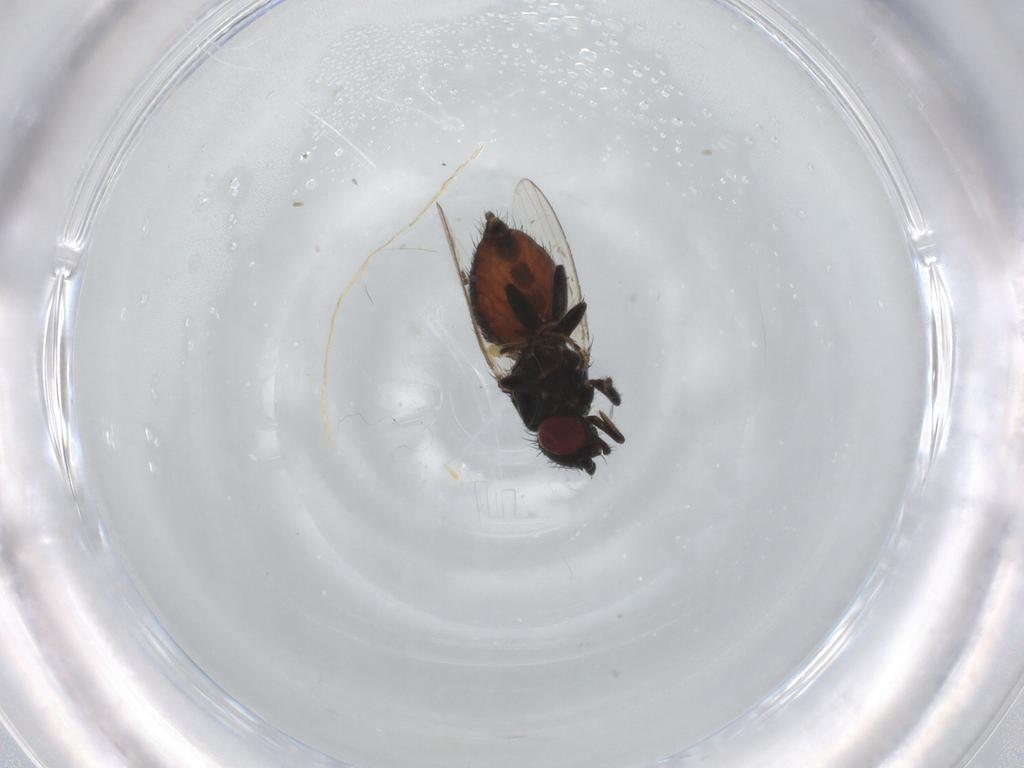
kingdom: Animalia
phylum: Arthropoda
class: Insecta
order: Diptera
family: Milichiidae
